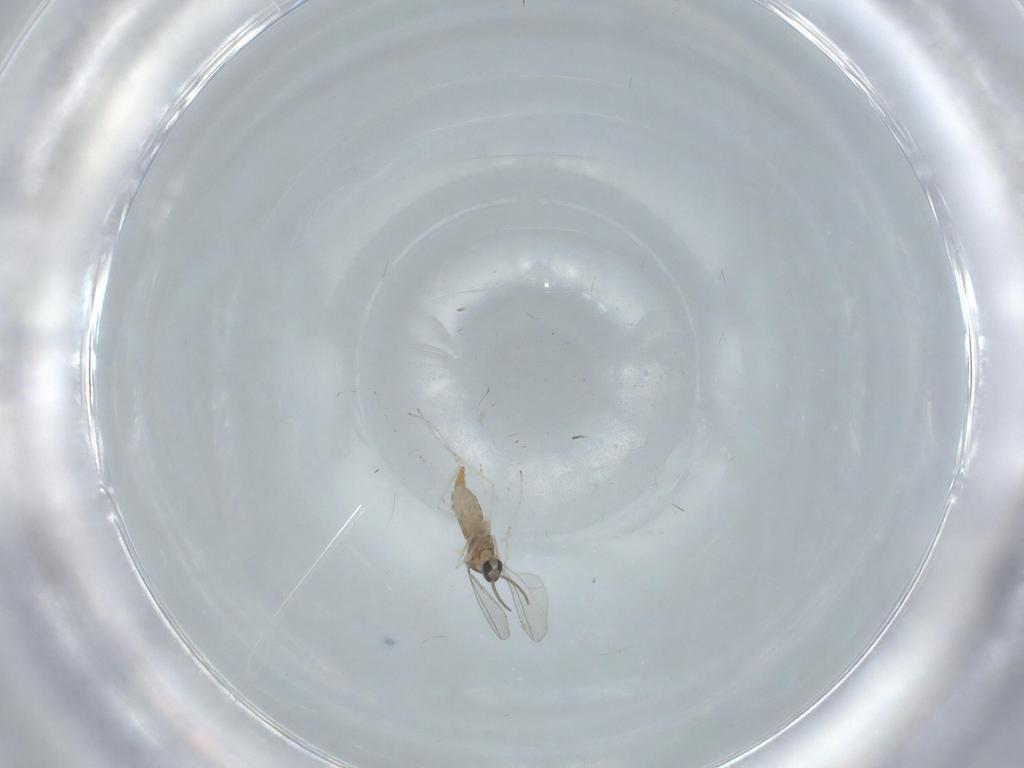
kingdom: Animalia
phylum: Arthropoda
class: Insecta
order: Diptera
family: Cecidomyiidae
